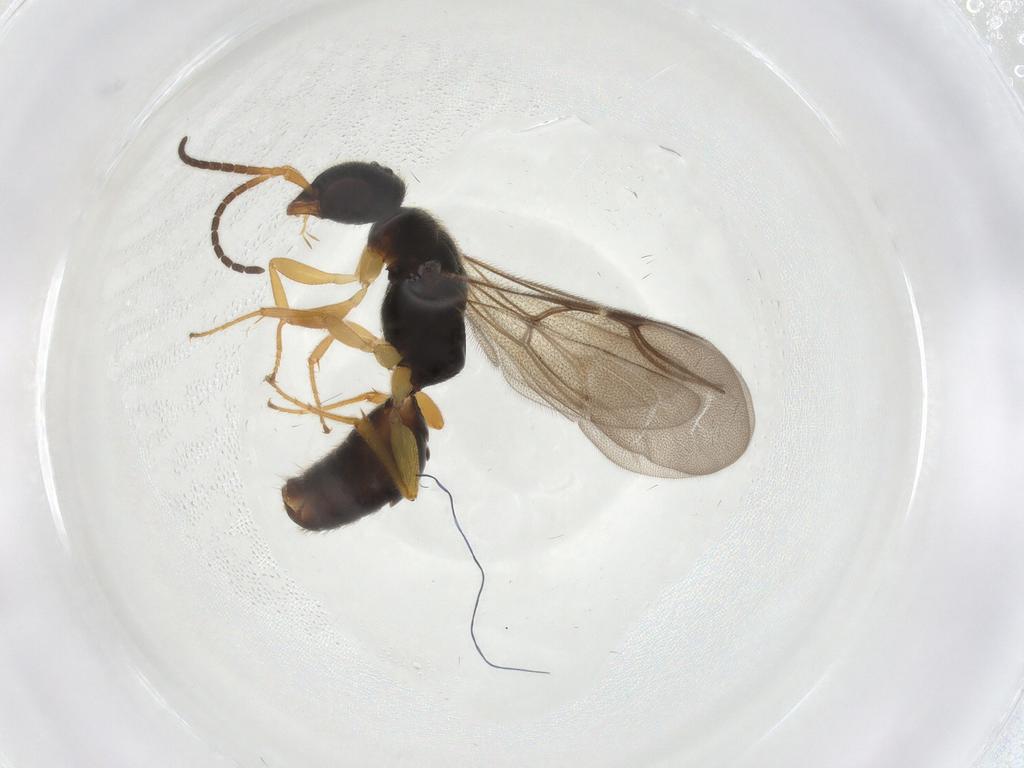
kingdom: Animalia
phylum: Arthropoda
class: Insecta
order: Hymenoptera
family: Bethylidae
